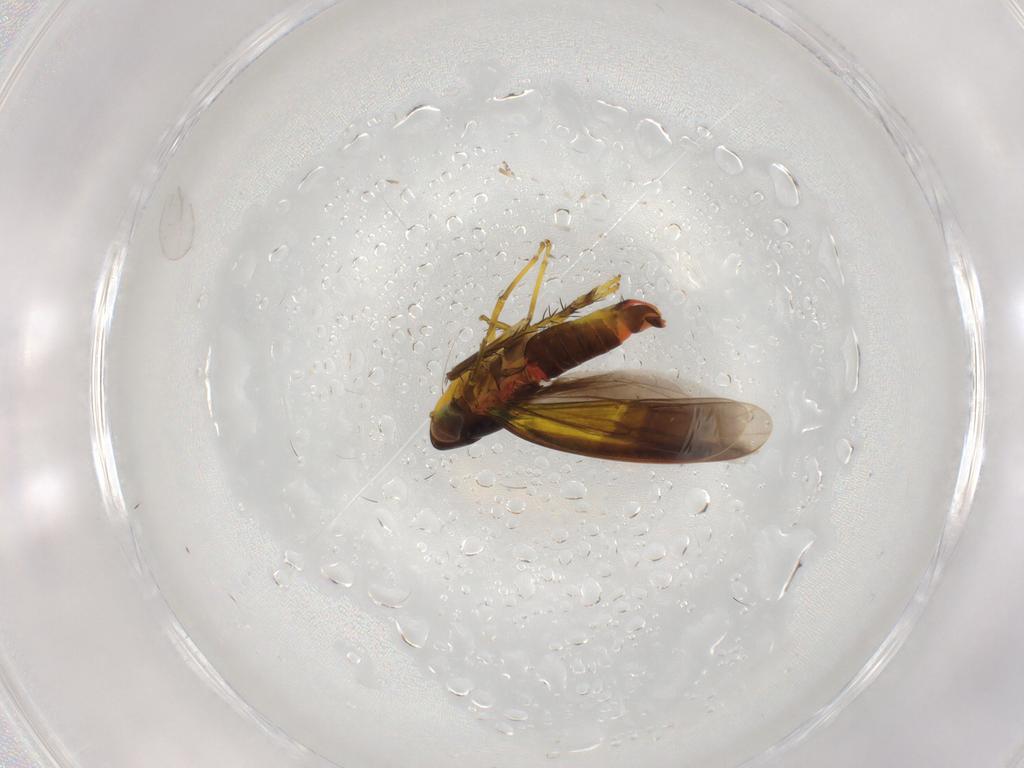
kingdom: Animalia
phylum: Arthropoda
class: Insecta
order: Hemiptera
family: Cicadellidae
